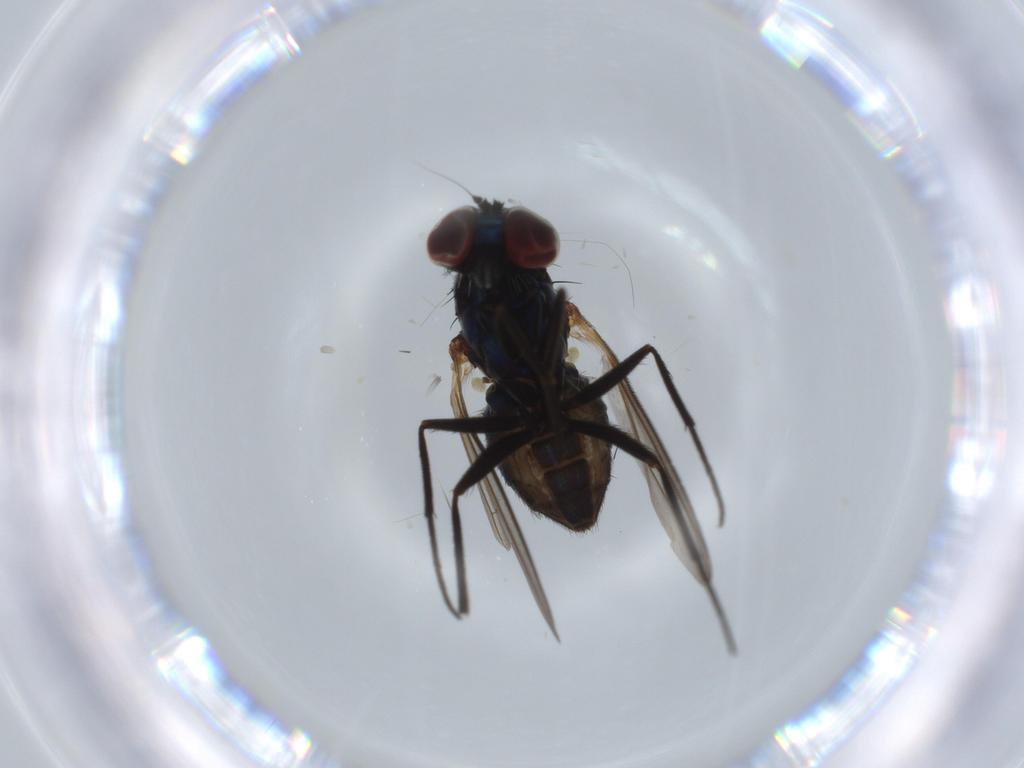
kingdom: Animalia
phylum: Arthropoda
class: Insecta
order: Diptera
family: Dolichopodidae
